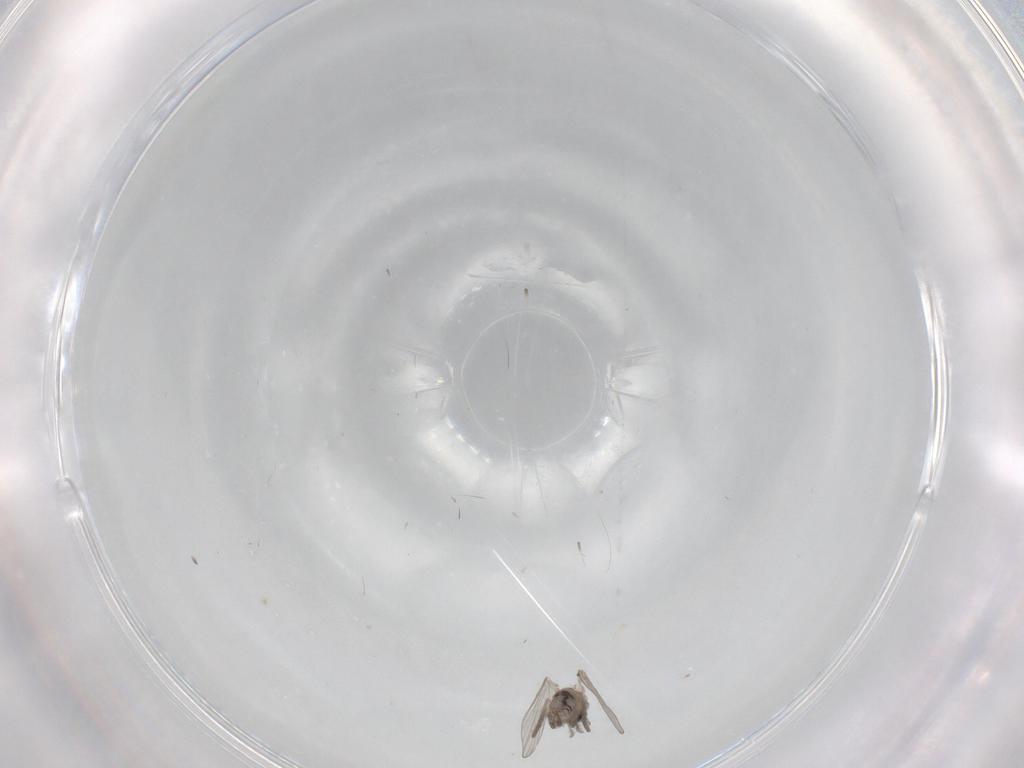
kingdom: Animalia
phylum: Arthropoda
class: Insecta
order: Diptera
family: Psychodidae
